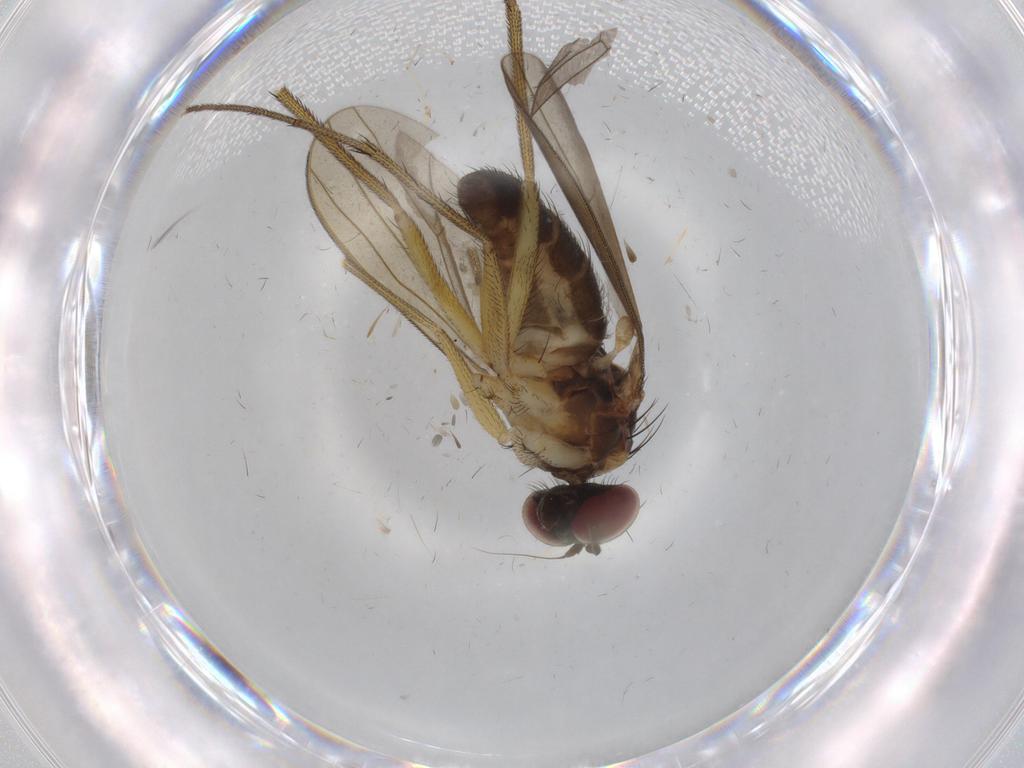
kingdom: Animalia
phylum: Arthropoda
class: Insecta
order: Diptera
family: Dolichopodidae
